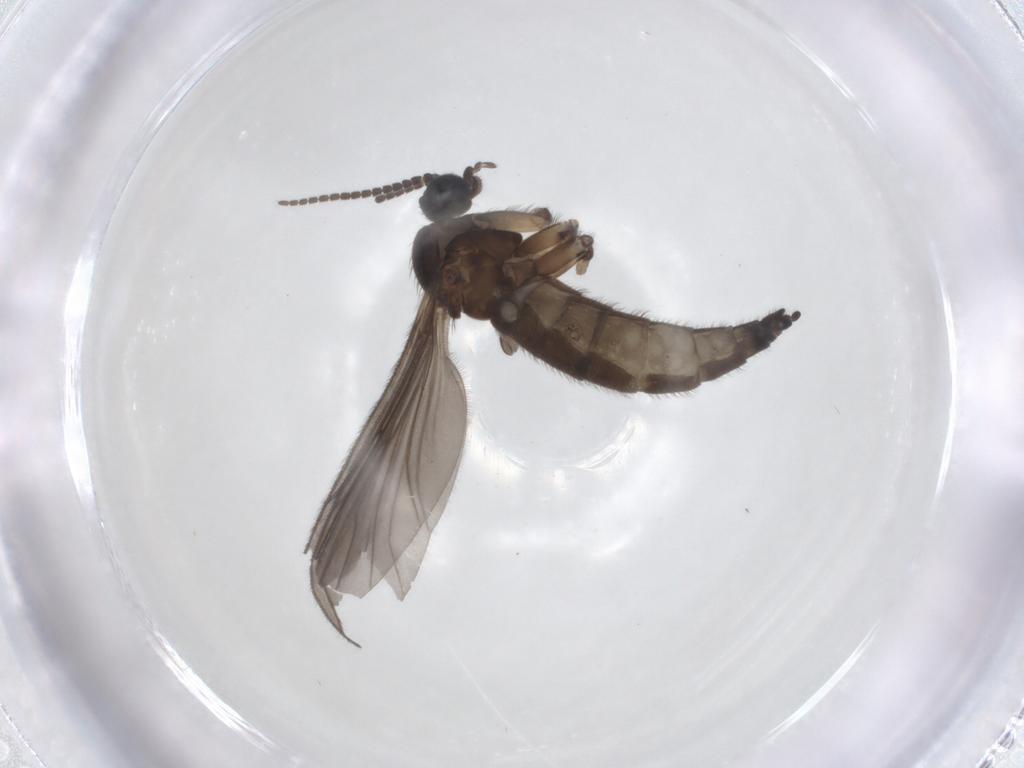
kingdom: Animalia
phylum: Arthropoda
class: Insecta
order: Diptera
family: Sciaridae
